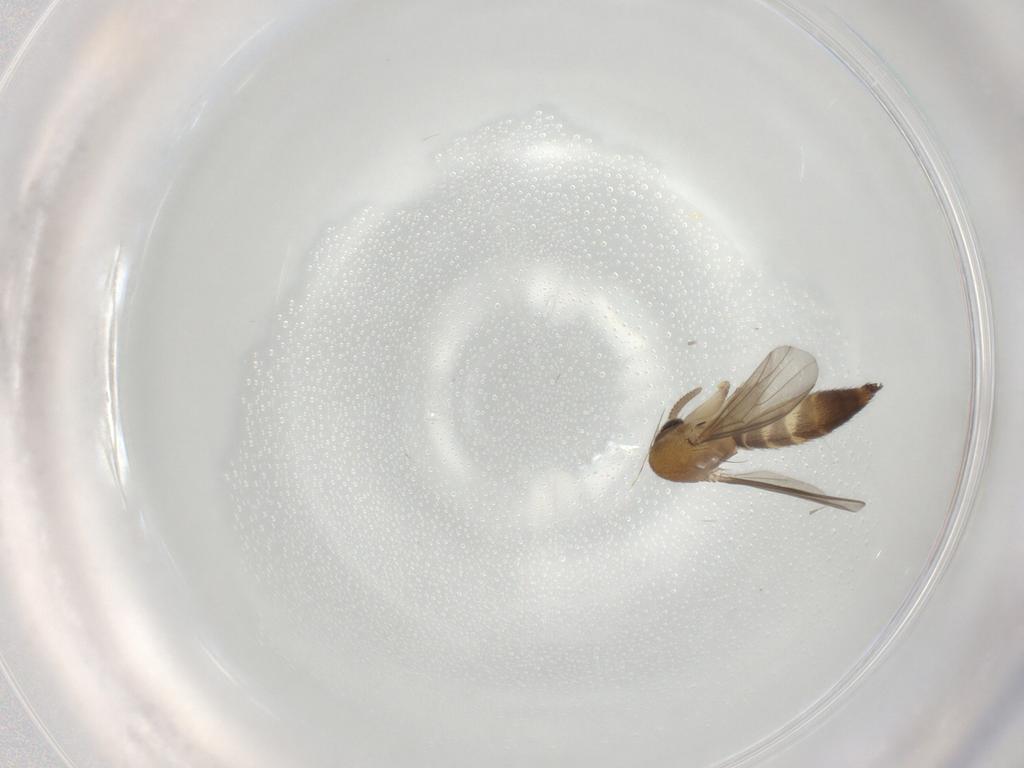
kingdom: Animalia
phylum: Arthropoda
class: Insecta
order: Diptera
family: Mycetophilidae
